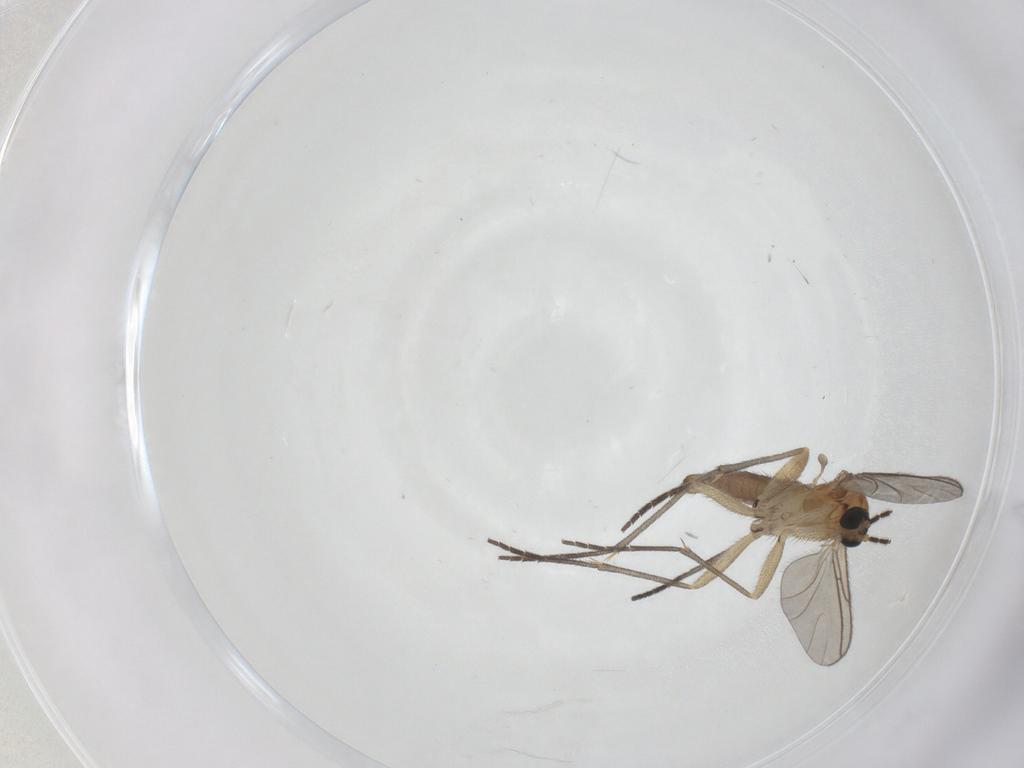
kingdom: Animalia
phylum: Arthropoda
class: Insecta
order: Diptera
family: Sciaridae
